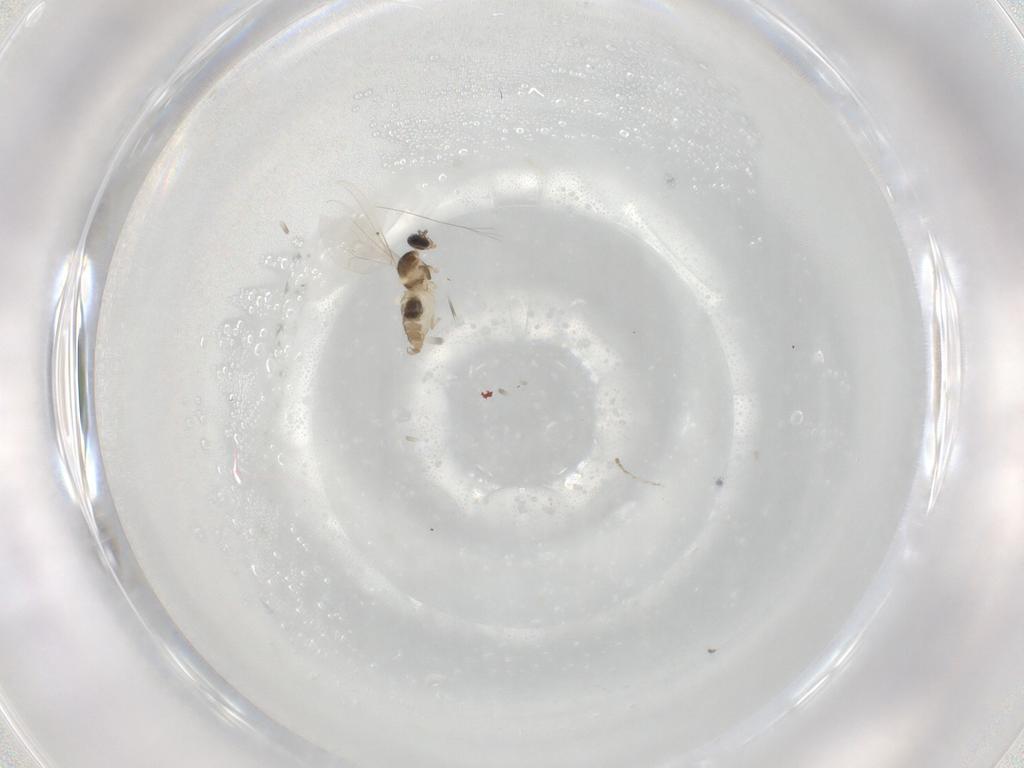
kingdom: Animalia
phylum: Arthropoda
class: Insecta
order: Diptera
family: Cecidomyiidae
